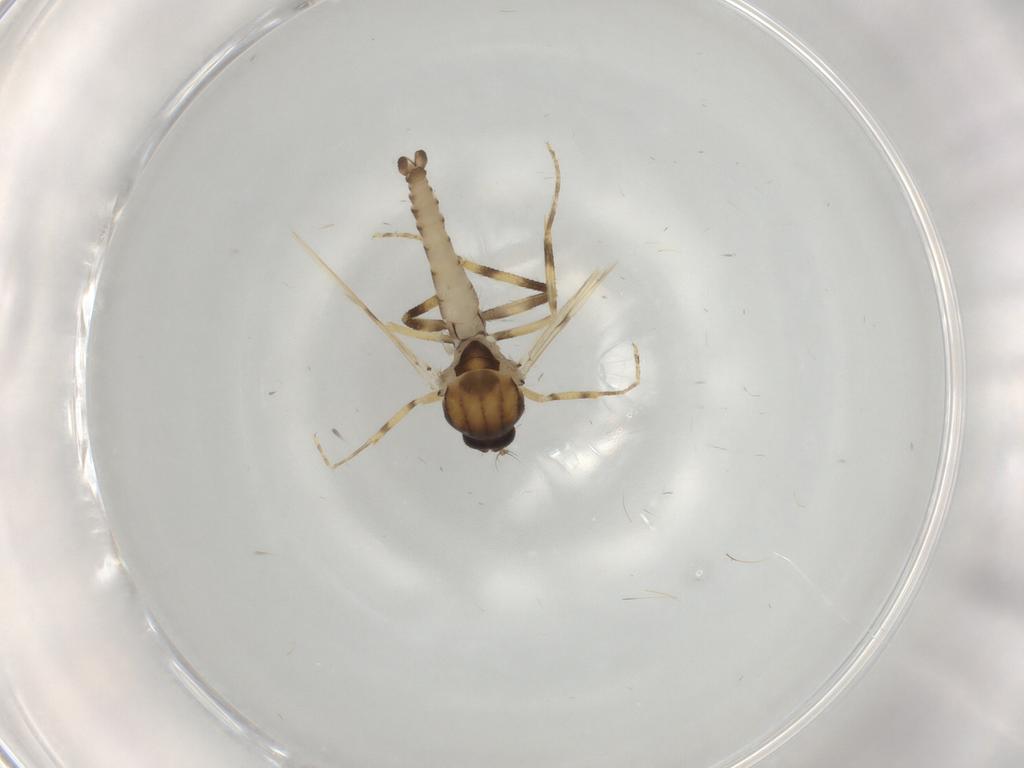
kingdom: Animalia
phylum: Arthropoda
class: Insecta
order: Diptera
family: Ceratopogonidae
